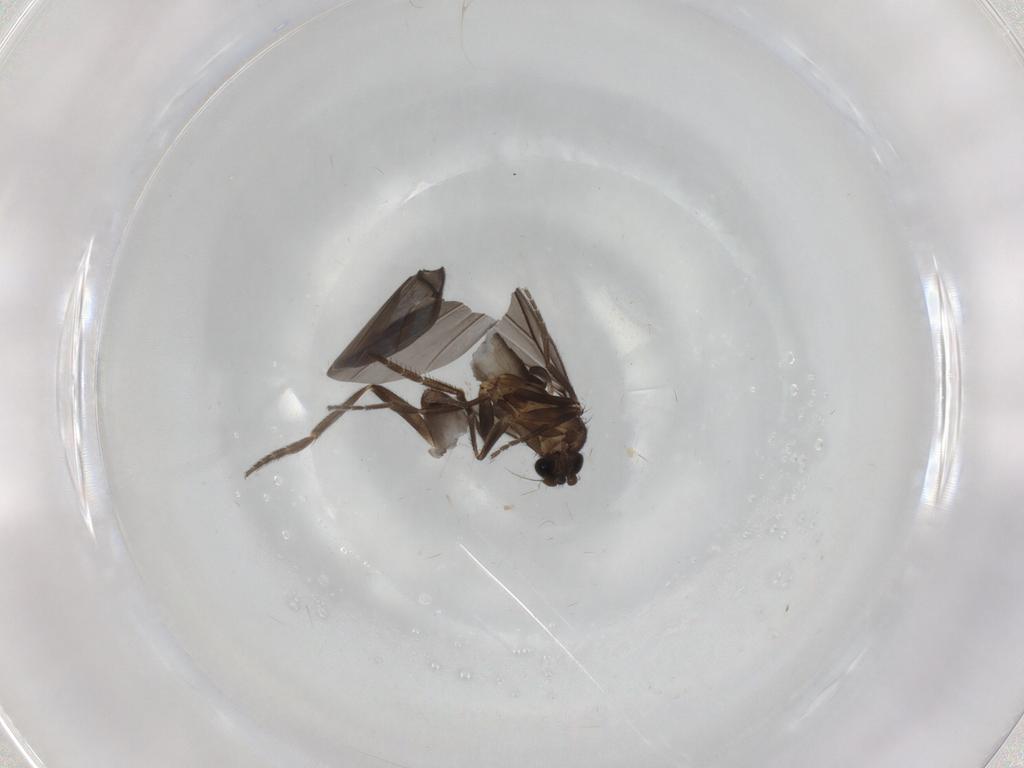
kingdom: Animalia
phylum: Arthropoda
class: Insecta
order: Diptera
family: Phoridae
